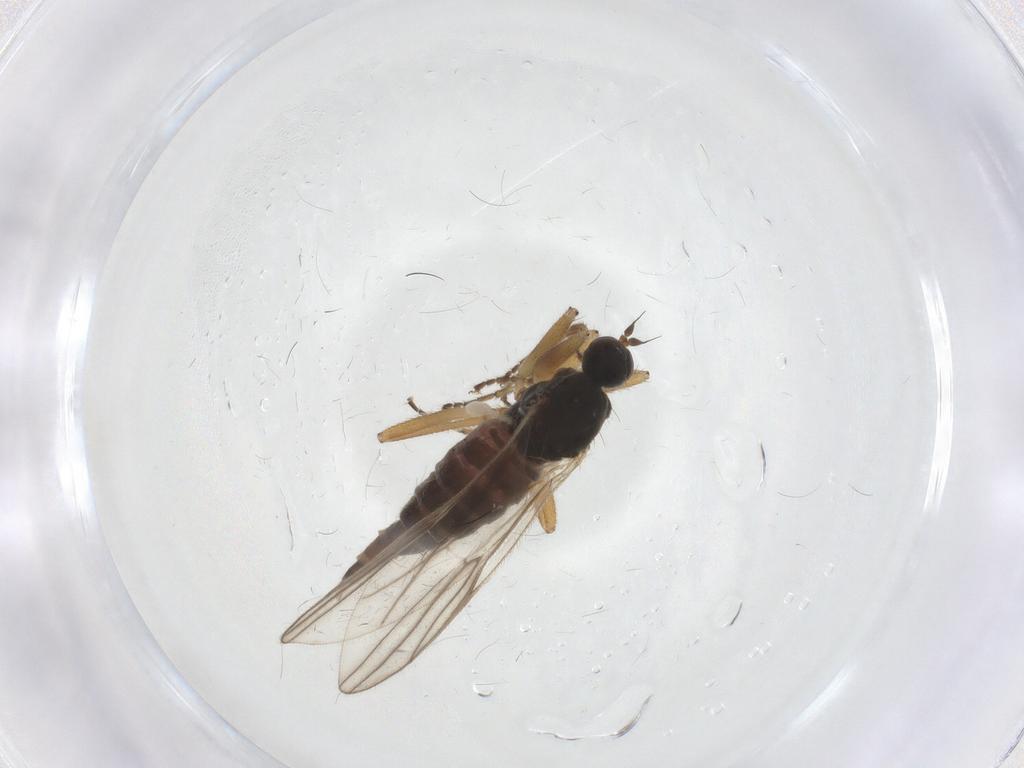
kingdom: Animalia
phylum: Arthropoda
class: Insecta
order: Diptera
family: Hybotidae
